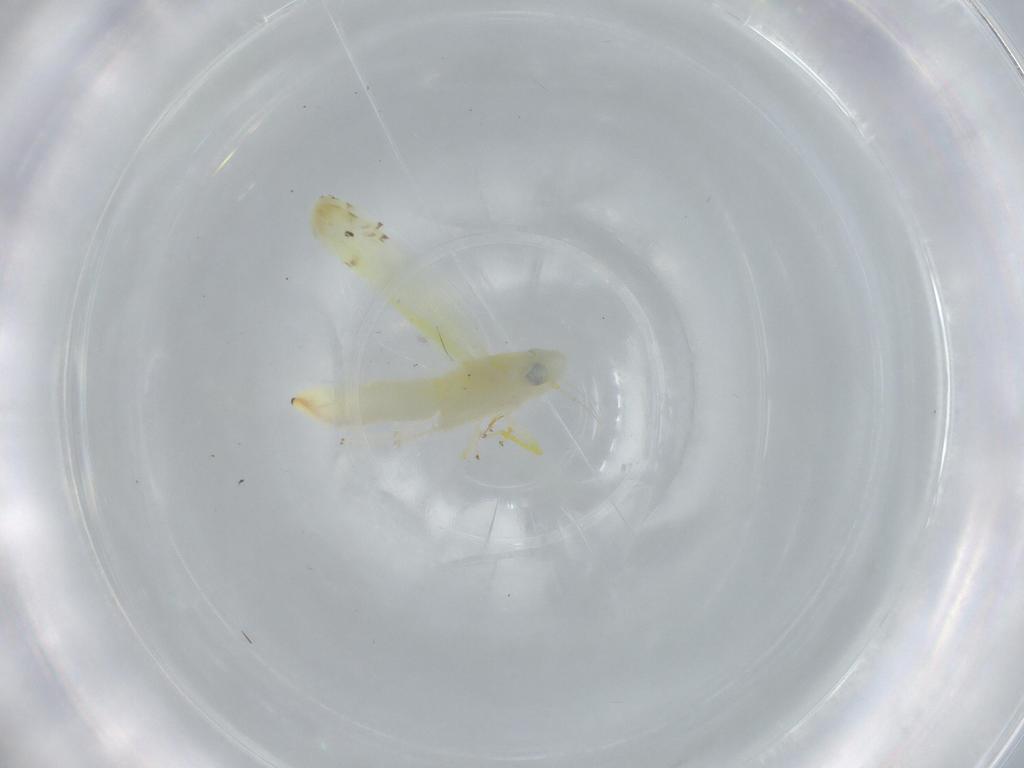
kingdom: Animalia
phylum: Arthropoda
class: Insecta
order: Hemiptera
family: Cicadellidae
